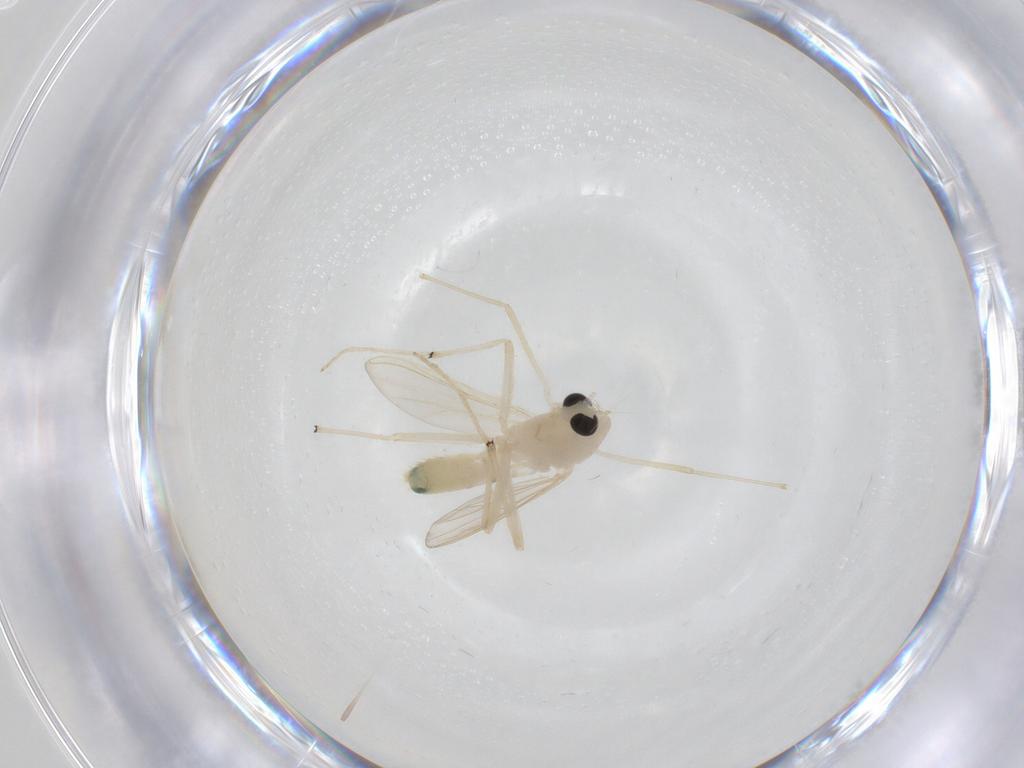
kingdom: Animalia
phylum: Arthropoda
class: Insecta
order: Diptera
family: Chironomidae
